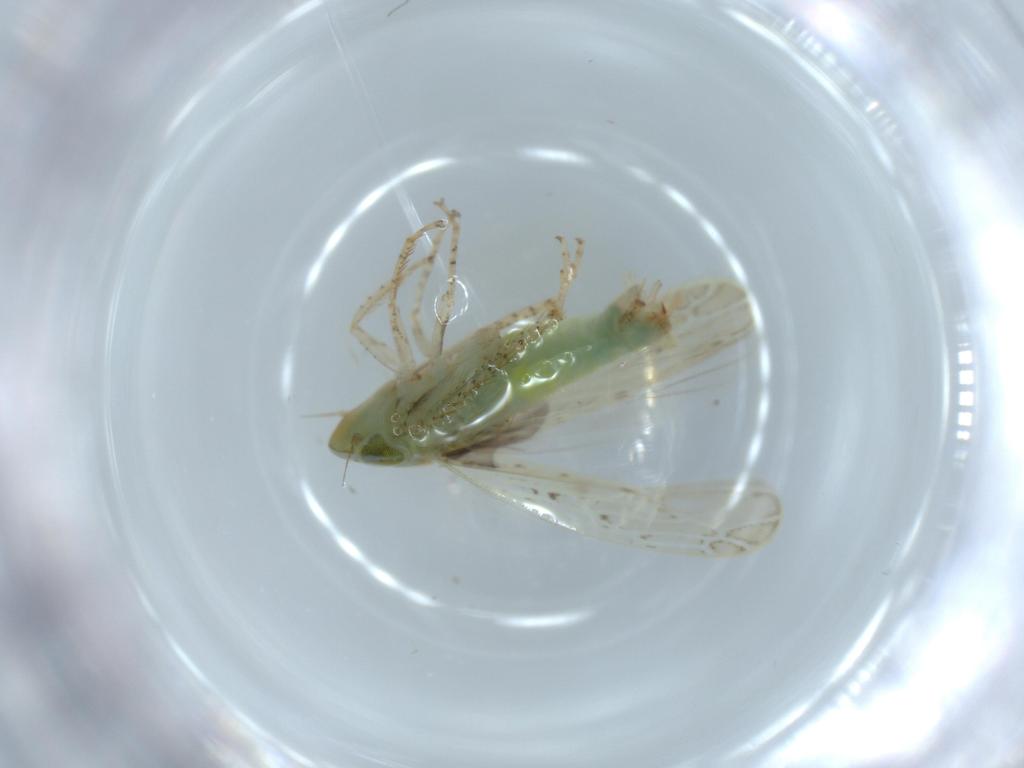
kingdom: Animalia
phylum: Arthropoda
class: Insecta
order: Hemiptera
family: Cicadellidae
